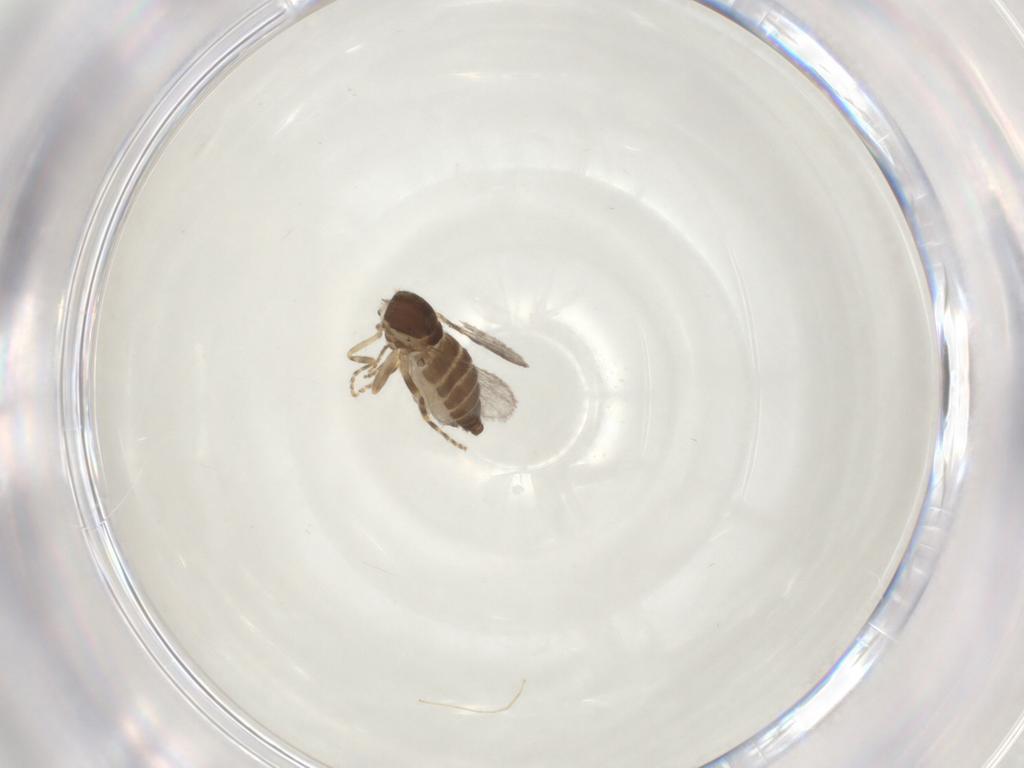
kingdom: Animalia
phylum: Arthropoda
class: Insecta
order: Diptera
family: Ceratopogonidae
